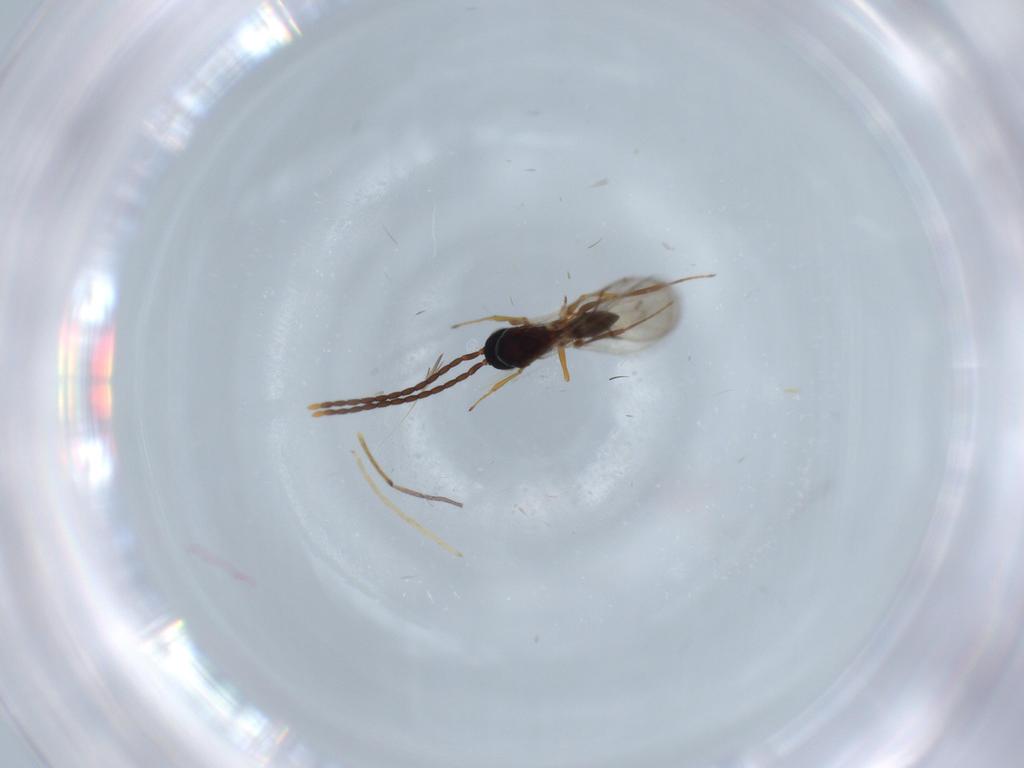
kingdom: Animalia
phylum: Arthropoda
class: Insecta
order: Hymenoptera
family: Figitidae
